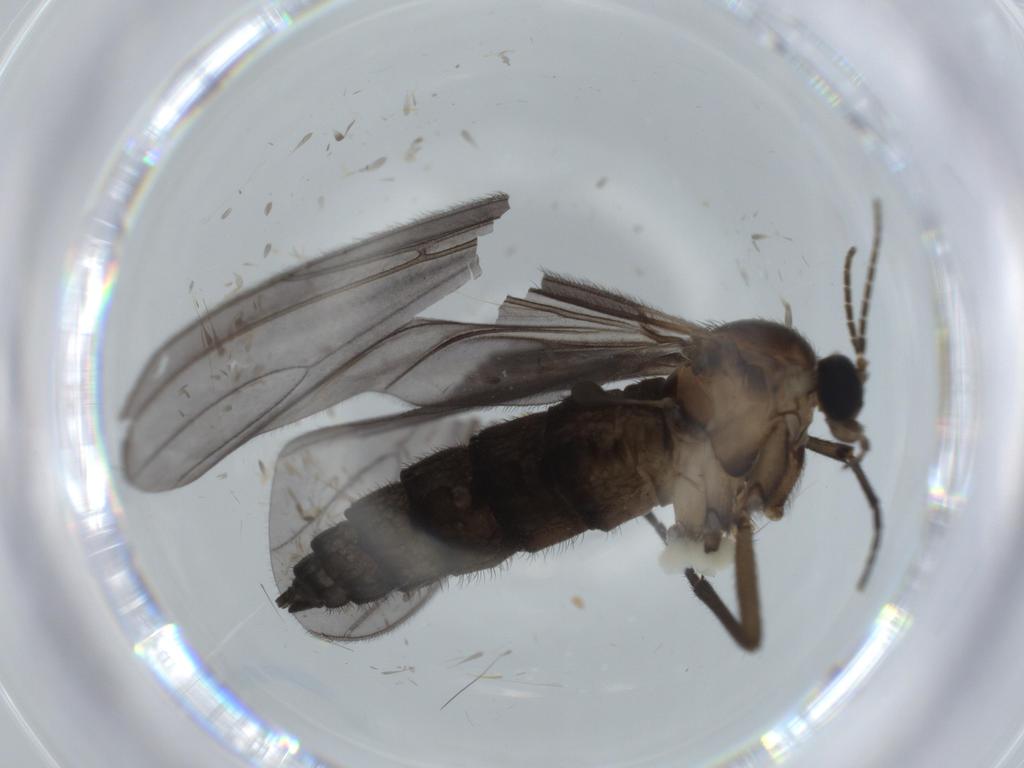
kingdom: Animalia
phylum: Arthropoda
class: Insecta
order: Diptera
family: Sciaridae
